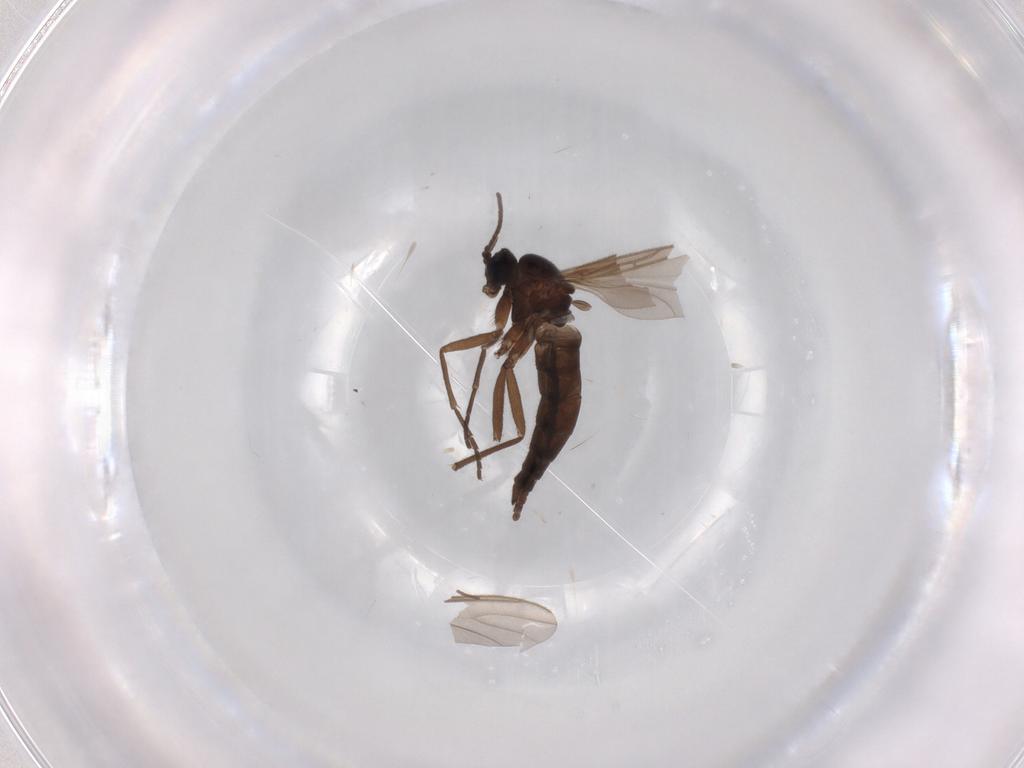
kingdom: Animalia
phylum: Arthropoda
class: Insecta
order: Diptera
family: Sciaridae
